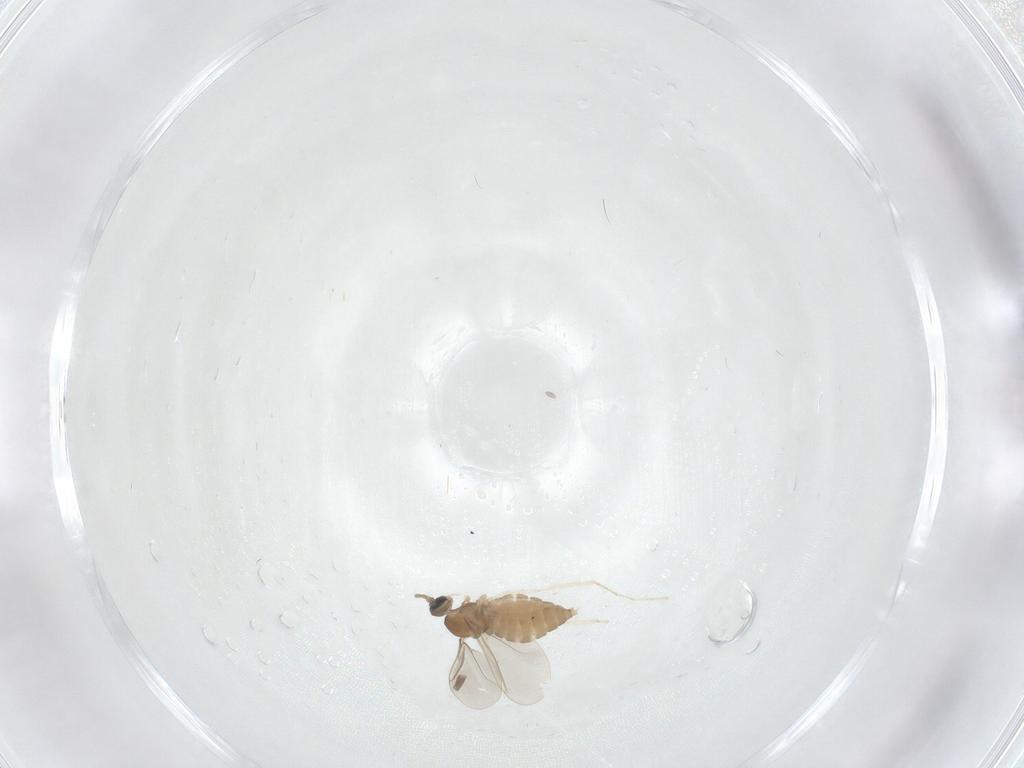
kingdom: Animalia
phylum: Arthropoda
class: Insecta
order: Diptera
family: Cecidomyiidae
